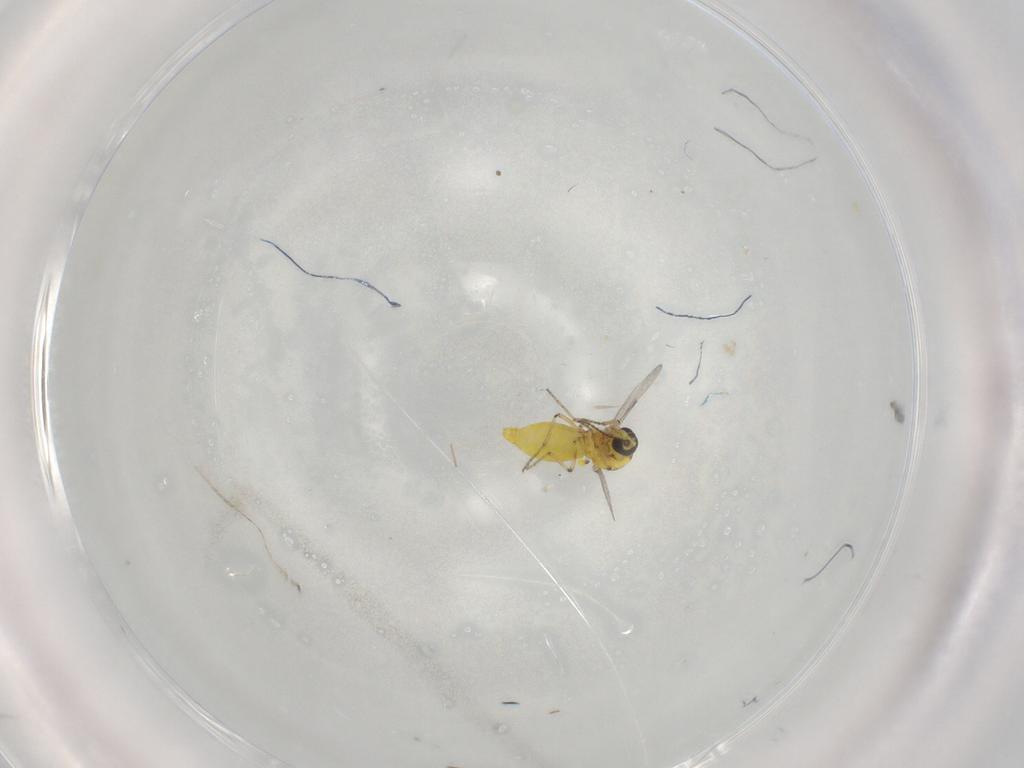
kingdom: Animalia
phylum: Arthropoda
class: Insecta
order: Diptera
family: Ceratopogonidae
